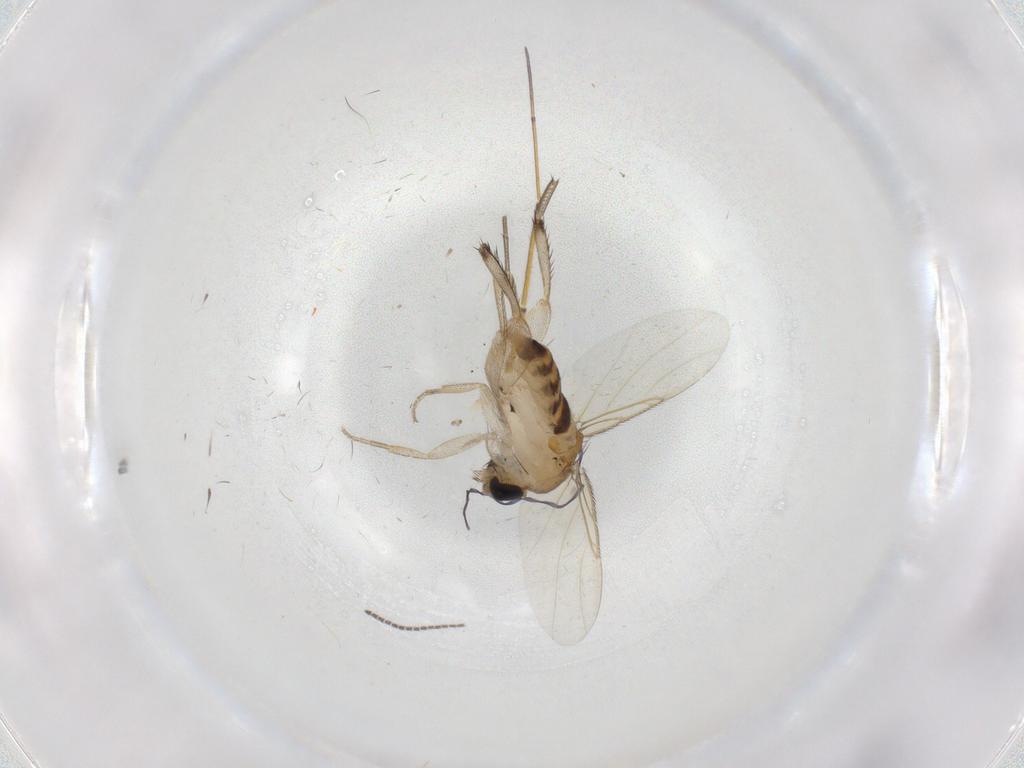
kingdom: Animalia
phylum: Arthropoda
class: Insecta
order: Diptera
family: Phoridae
